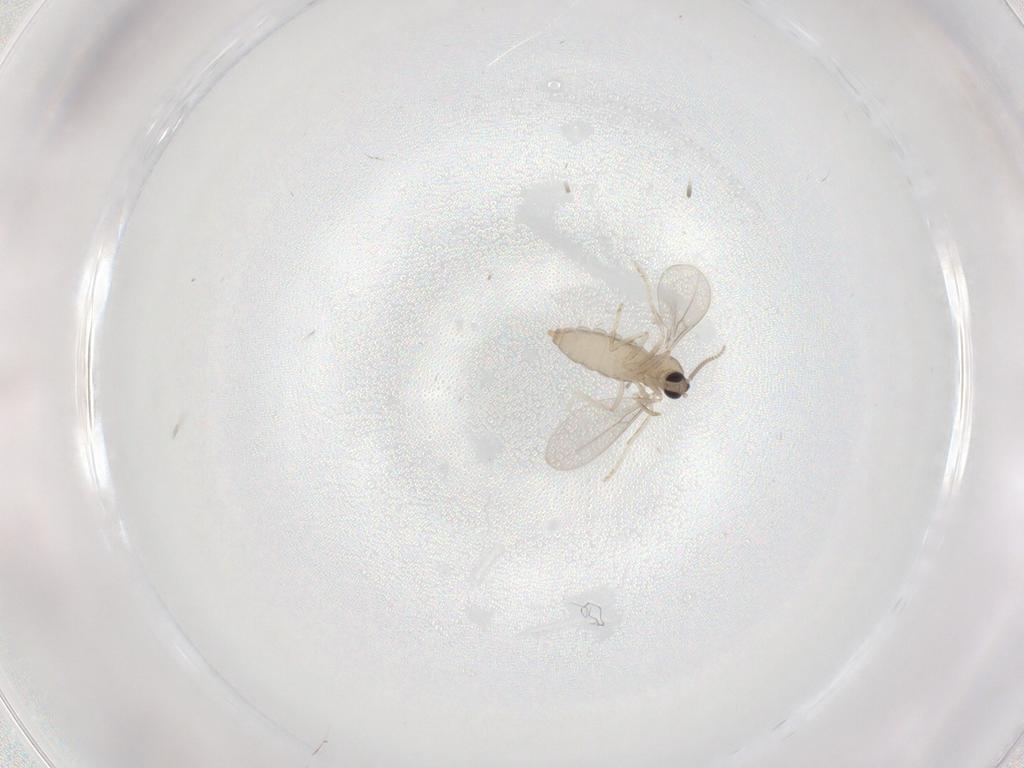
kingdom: Animalia
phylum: Arthropoda
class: Insecta
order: Diptera
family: Cecidomyiidae
